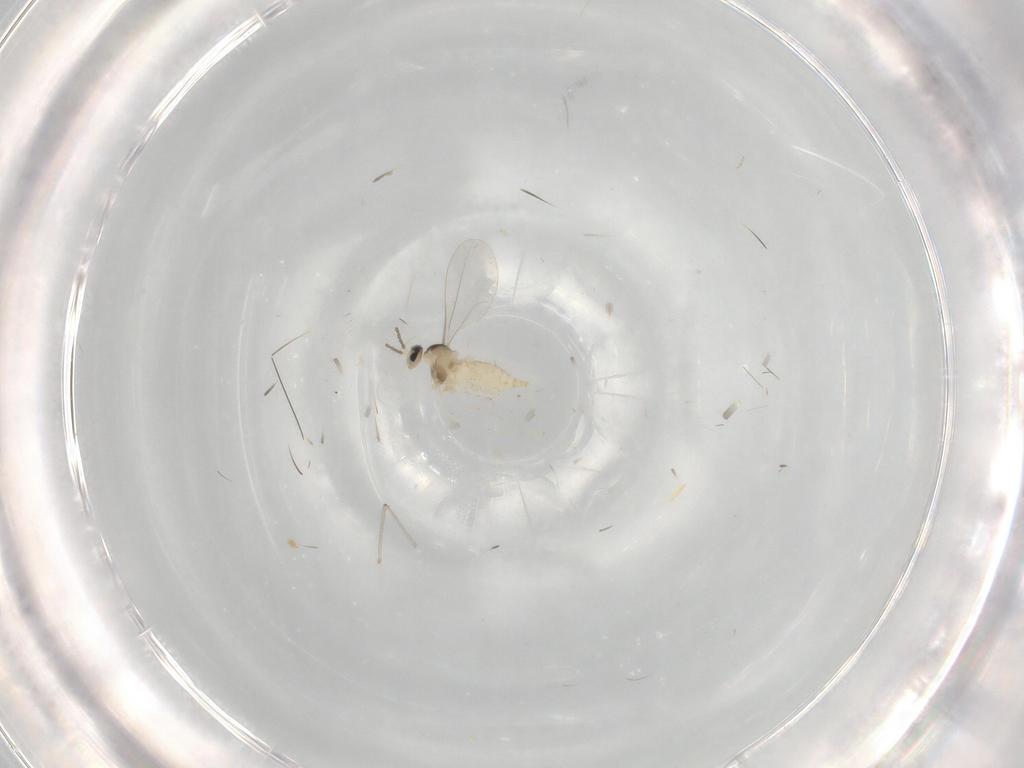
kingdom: Animalia
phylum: Arthropoda
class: Insecta
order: Diptera
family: Cecidomyiidae
